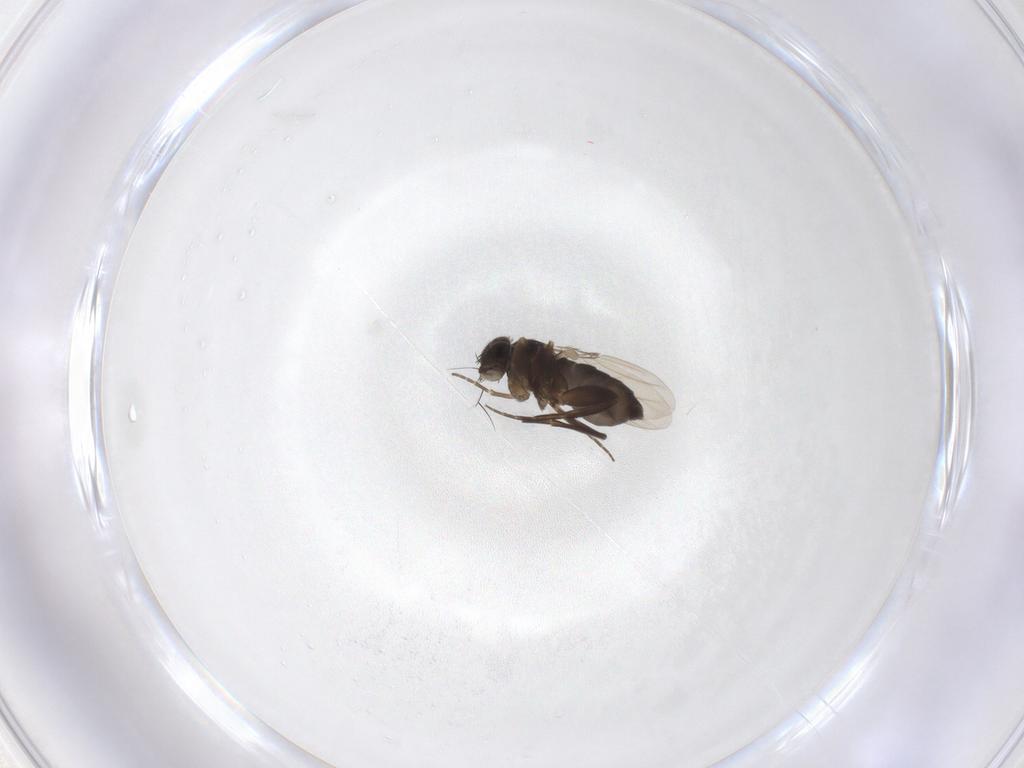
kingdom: Animalia
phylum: Arthropoda
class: Insecta
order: Diptera
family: Phoridae
